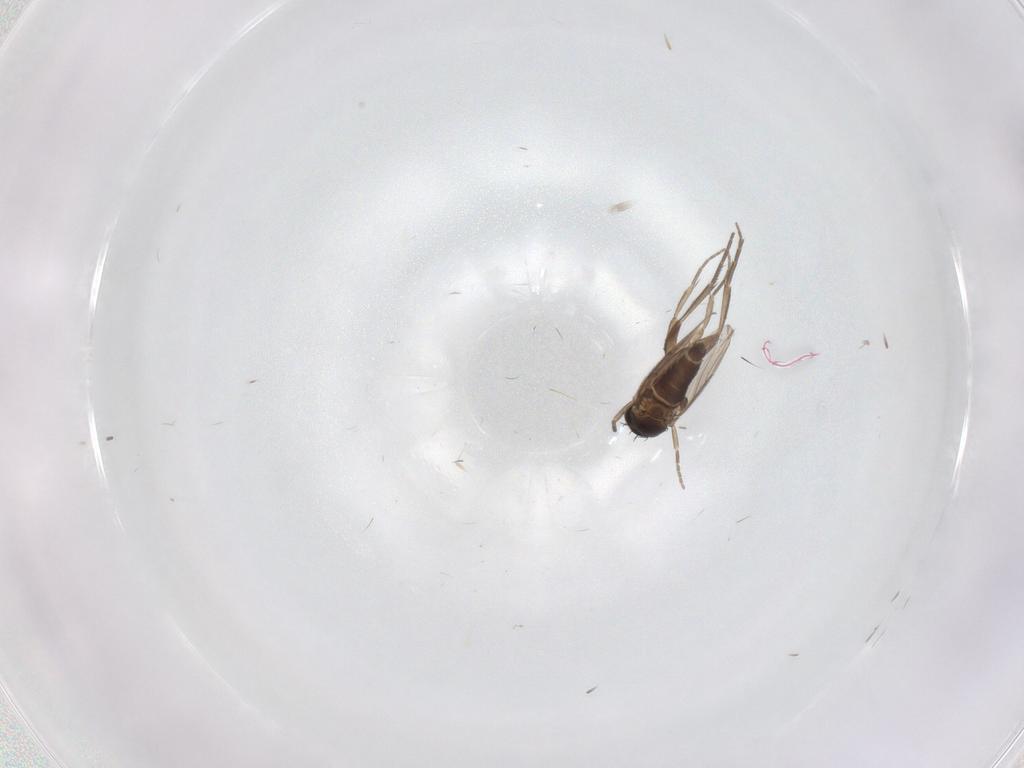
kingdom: Animalia
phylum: Arthropoda
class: Insecta
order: Diptera
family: Phoridae
